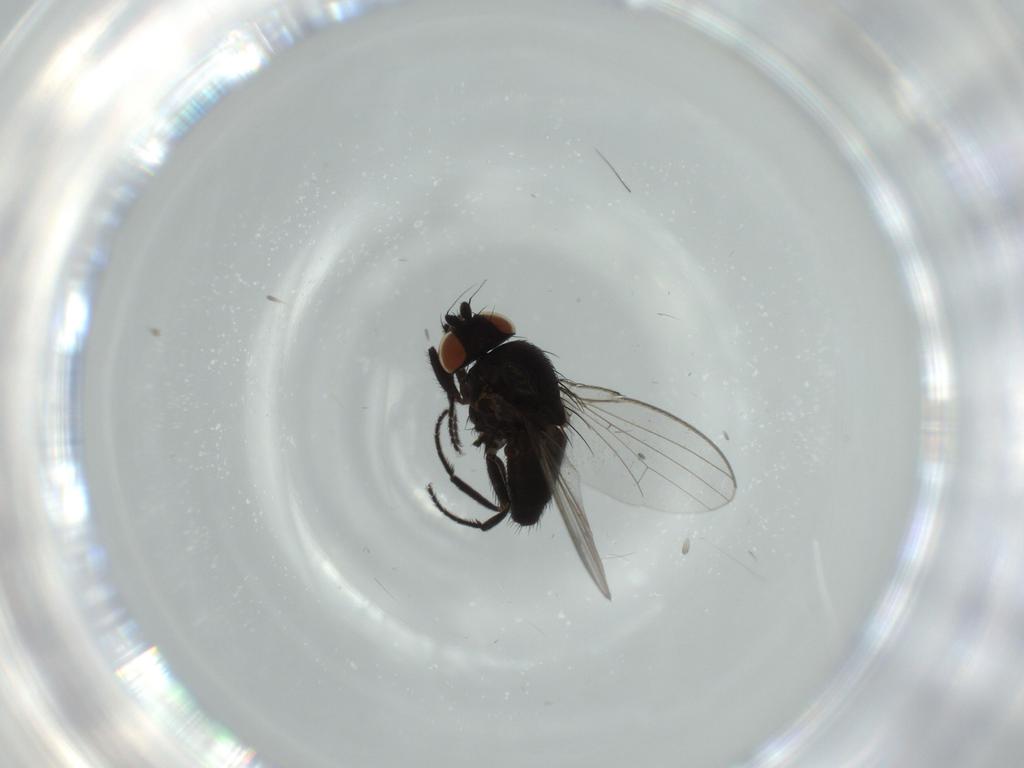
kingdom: Animalia
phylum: Arthropoda
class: Insecta
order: Diptera
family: Milichiidae
